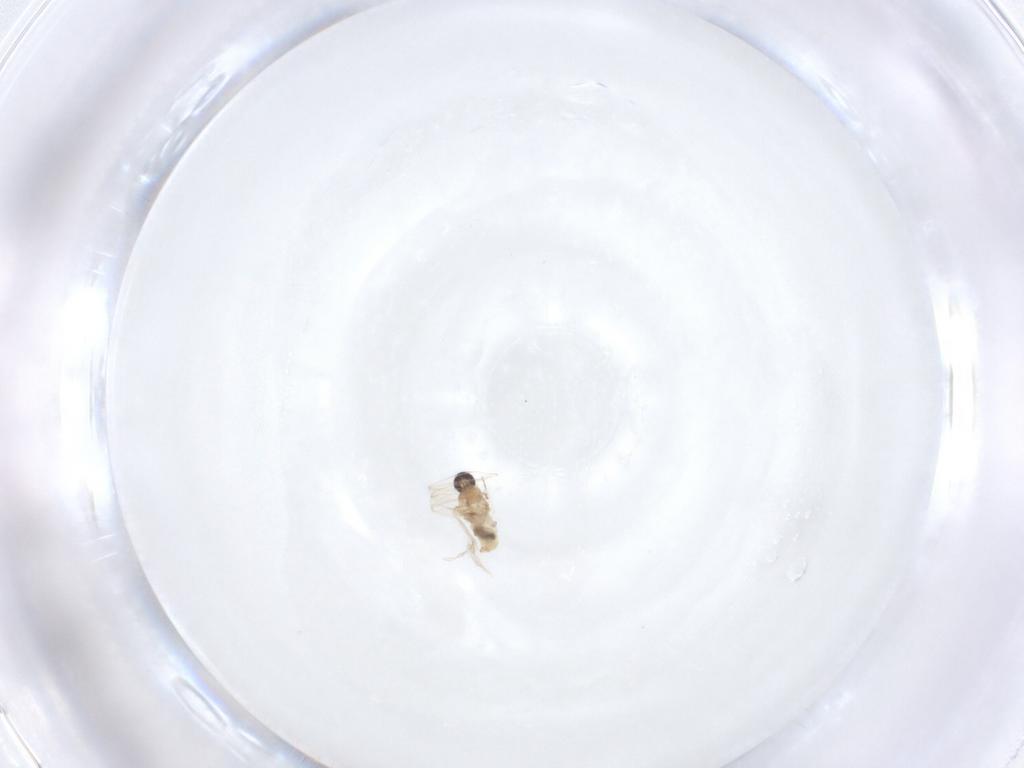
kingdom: Animalia
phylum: Arthropoda
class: Insecta
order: Diptera
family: Cecidomyiidae
